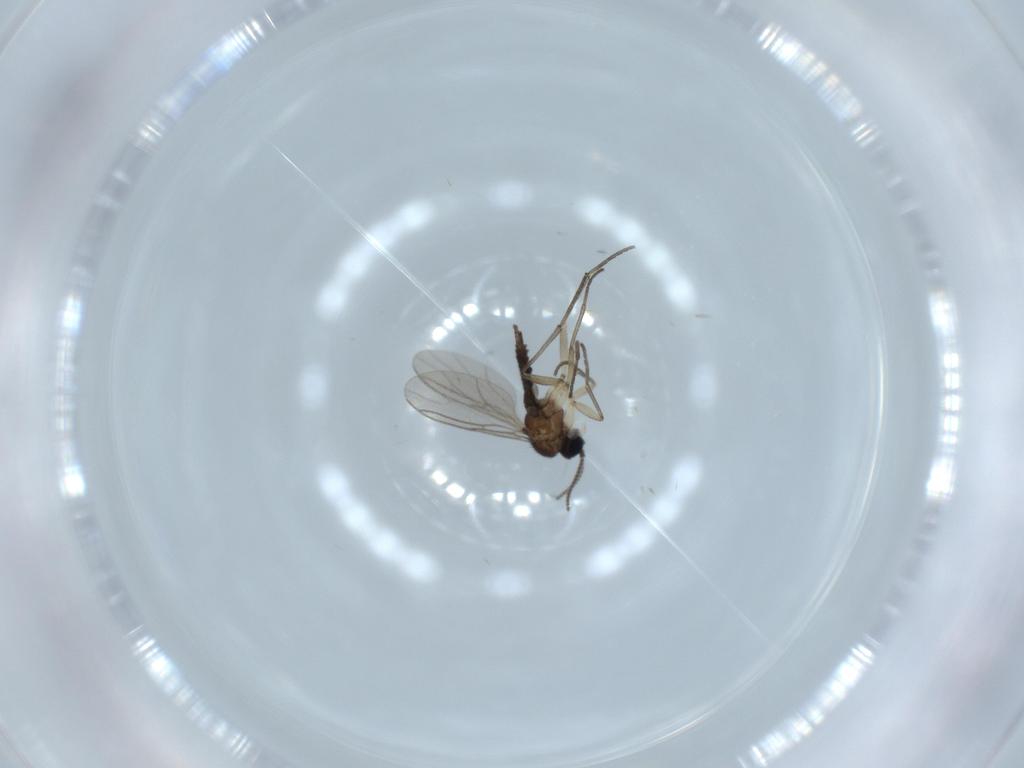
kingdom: Animalia
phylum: Arthropoda
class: Insecta
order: Diptera
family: Sciaridae
